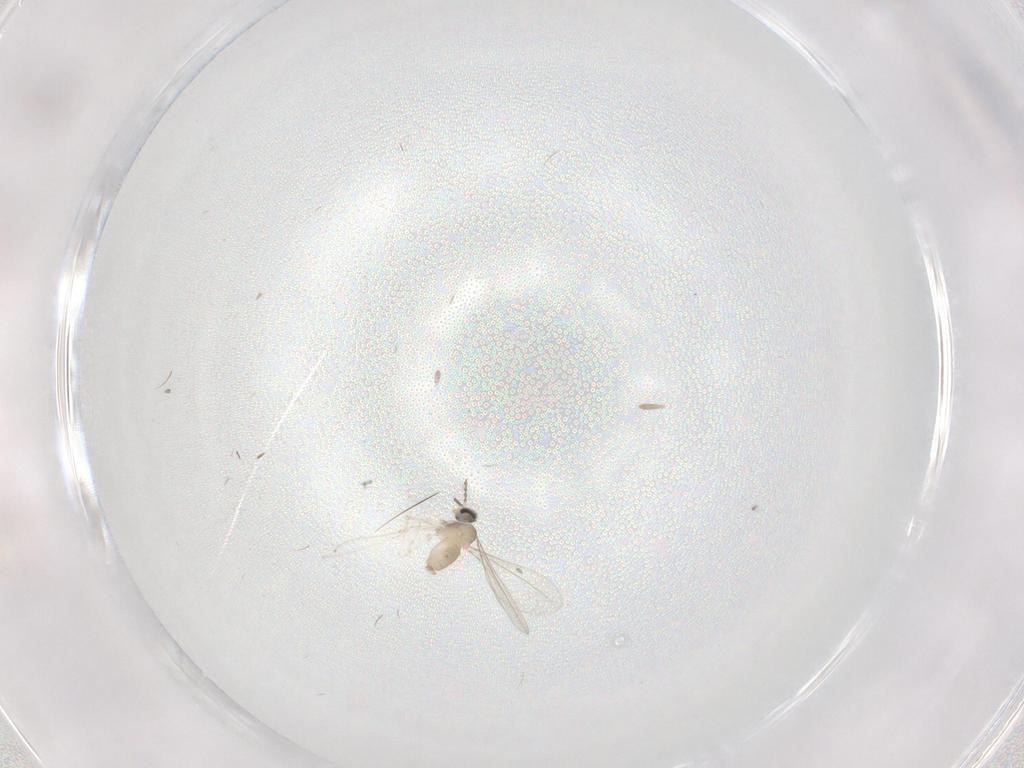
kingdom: Animalia
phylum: Arthropoda
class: Insecta
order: Diptera
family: Cecidomyiidae
